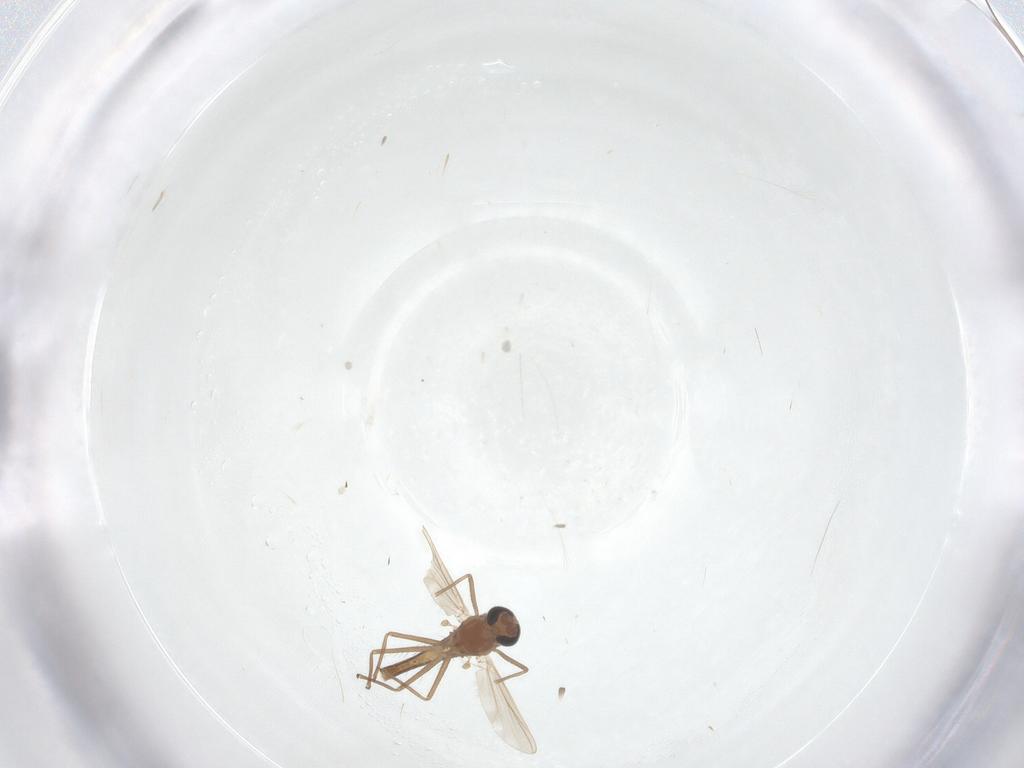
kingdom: Animalia
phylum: Arthropoda
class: Insecta
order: Diptera
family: Chironomidae
